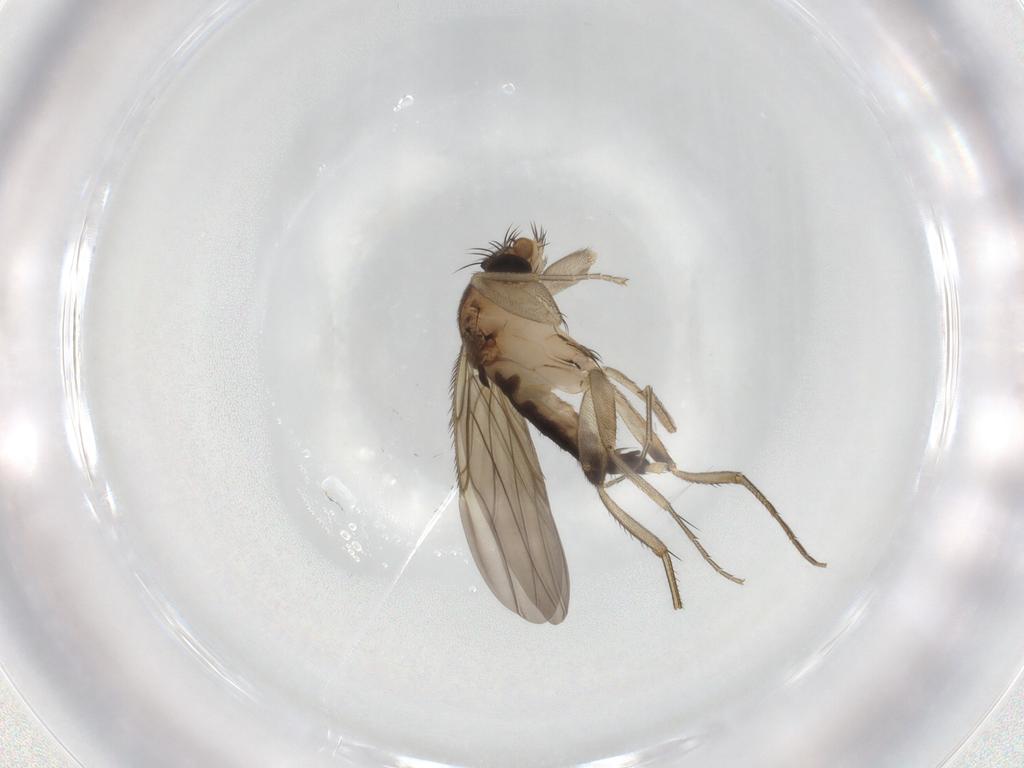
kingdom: Animalia
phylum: Arthropoda
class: Insecta
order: Diptera
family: Phoridae
